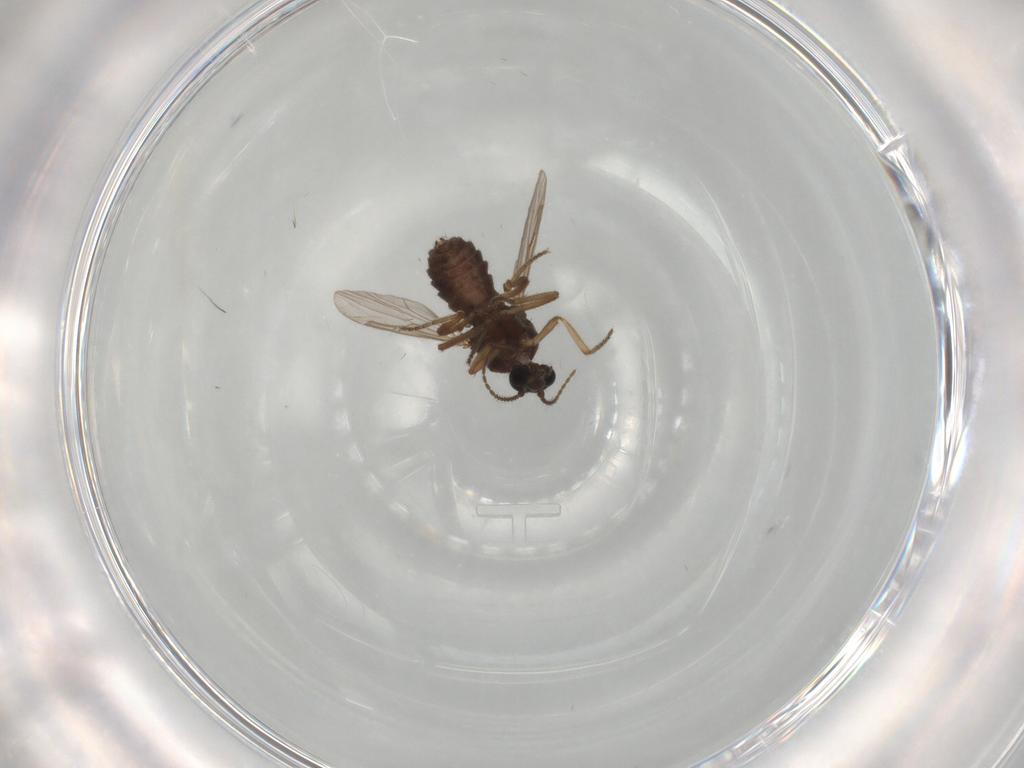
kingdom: Animalia
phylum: Arthropoda
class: Insecta
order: Diptera
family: Ceratopogonidae
